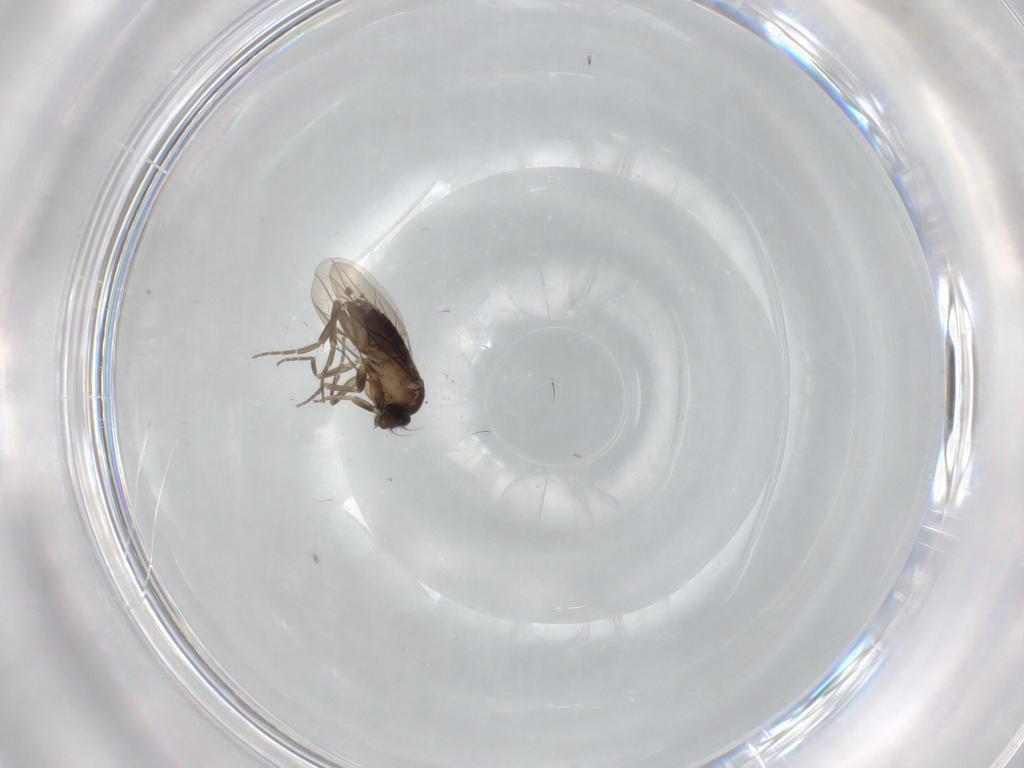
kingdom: Animalia
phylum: Arthropoda
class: Insecta
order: Diptera
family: Phoridae
